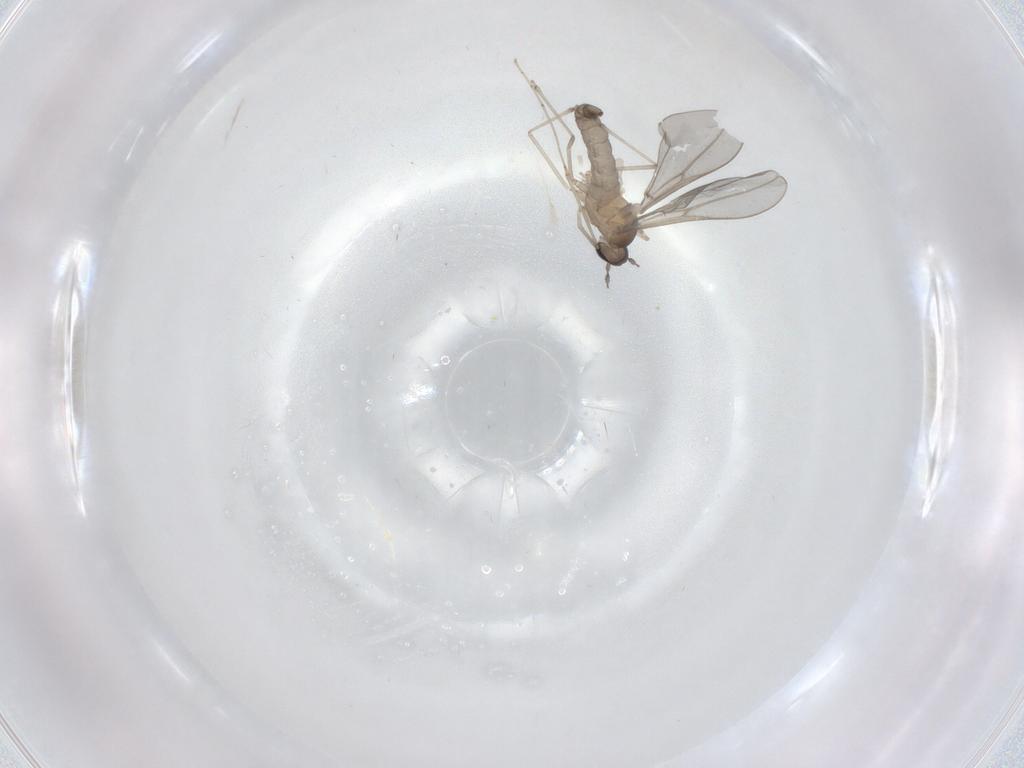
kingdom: Animalia
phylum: Arthropoda
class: Insecta
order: Diptera
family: Cecidomyiidae
